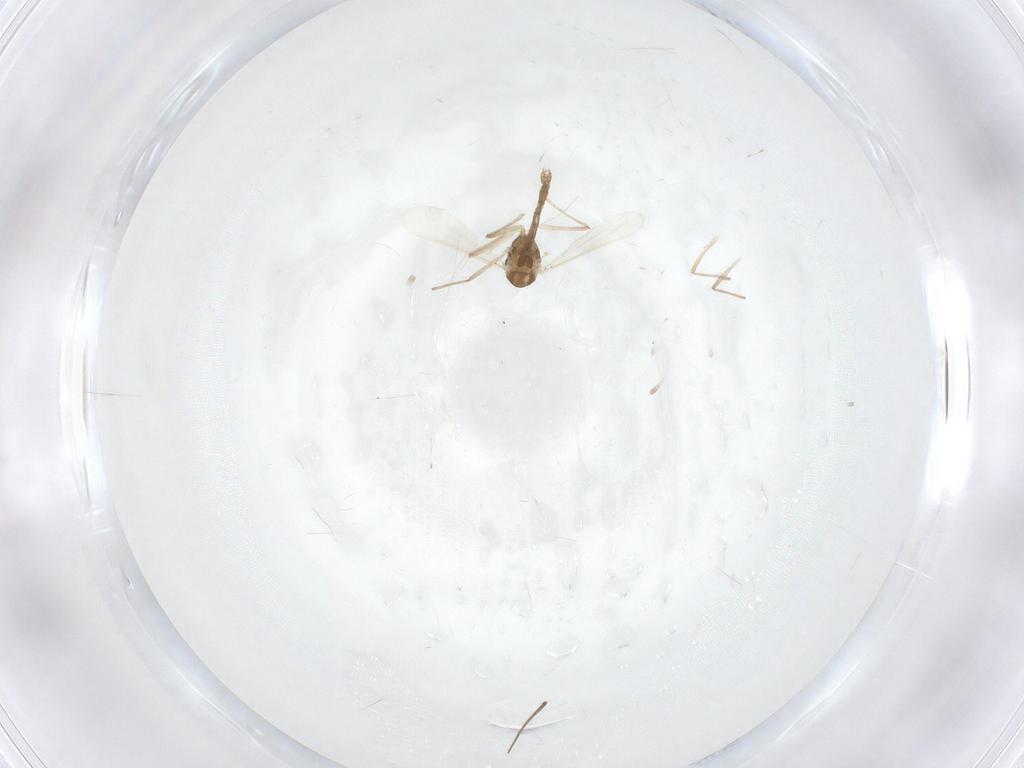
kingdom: Animalia
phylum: Arthropoda
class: Insecta
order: Diptera
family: Chironomidae
